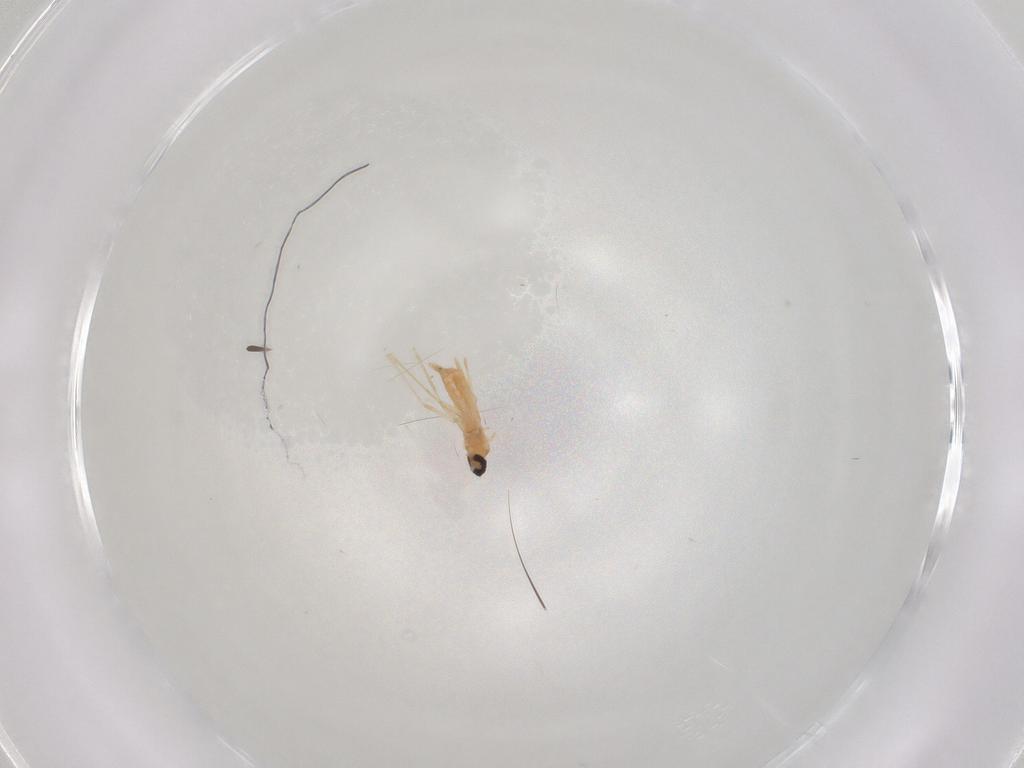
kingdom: Animalia
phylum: Arthropoda
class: Insecta
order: Diptera
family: Cecidomyiidae
